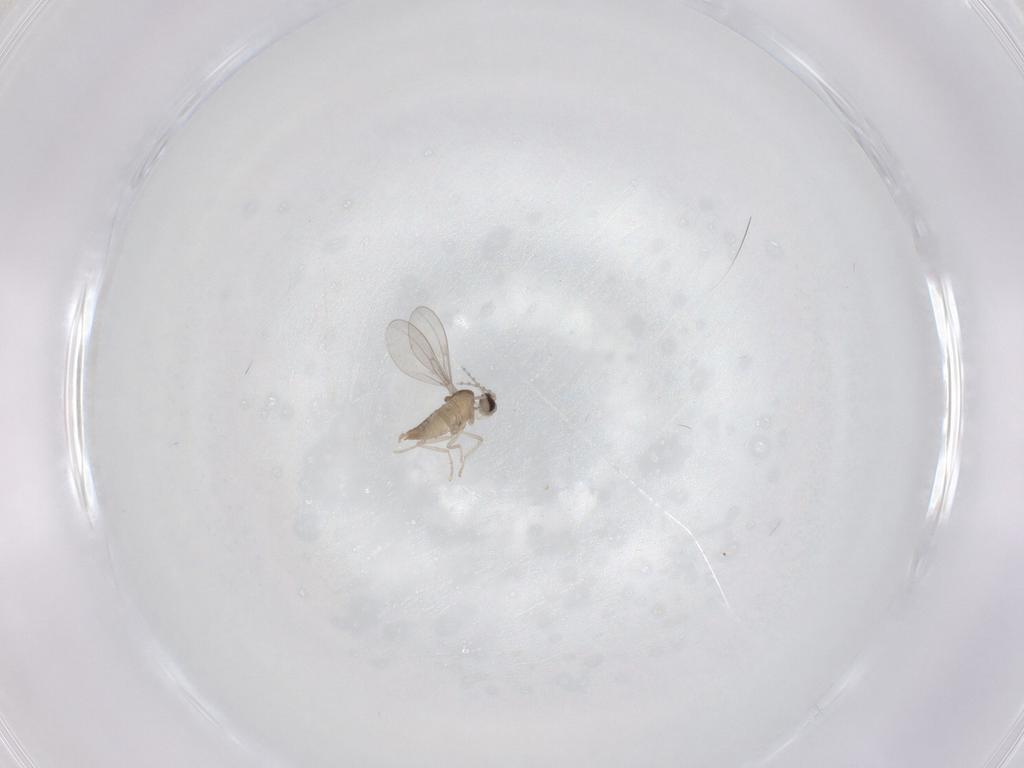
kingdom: Animalia
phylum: Arthropoda
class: Insecta
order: Diptera
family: Cecidomyiidae
